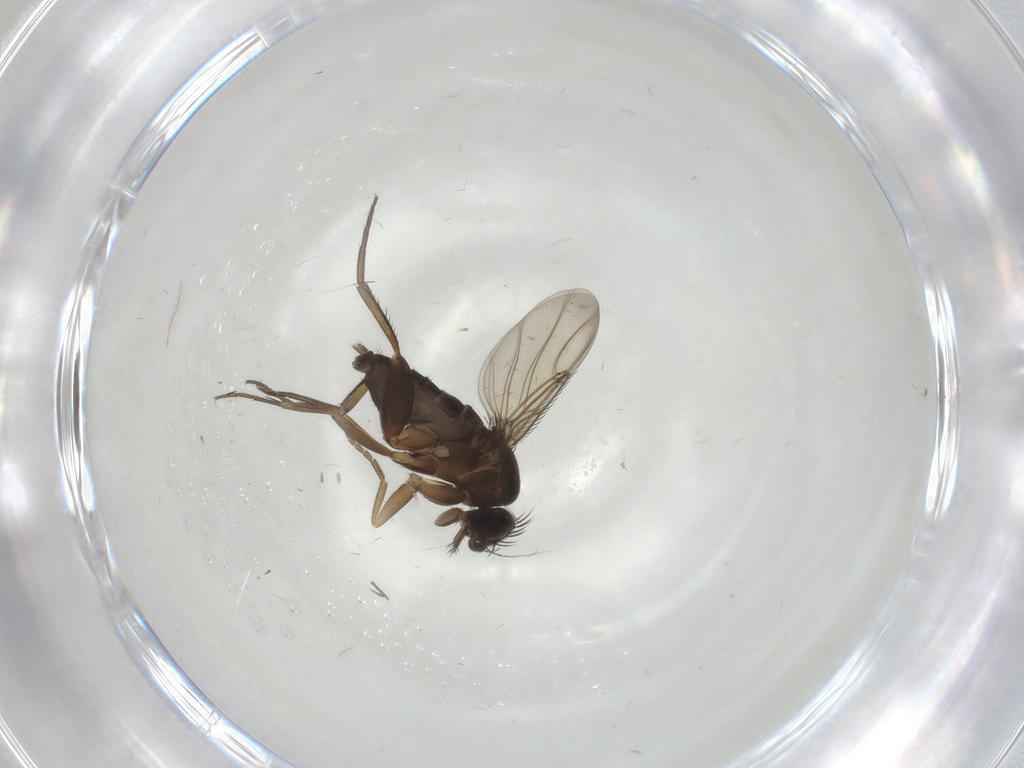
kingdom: Animalia
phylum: Arthropoda
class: Insecta
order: Diptera
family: Phoridae
